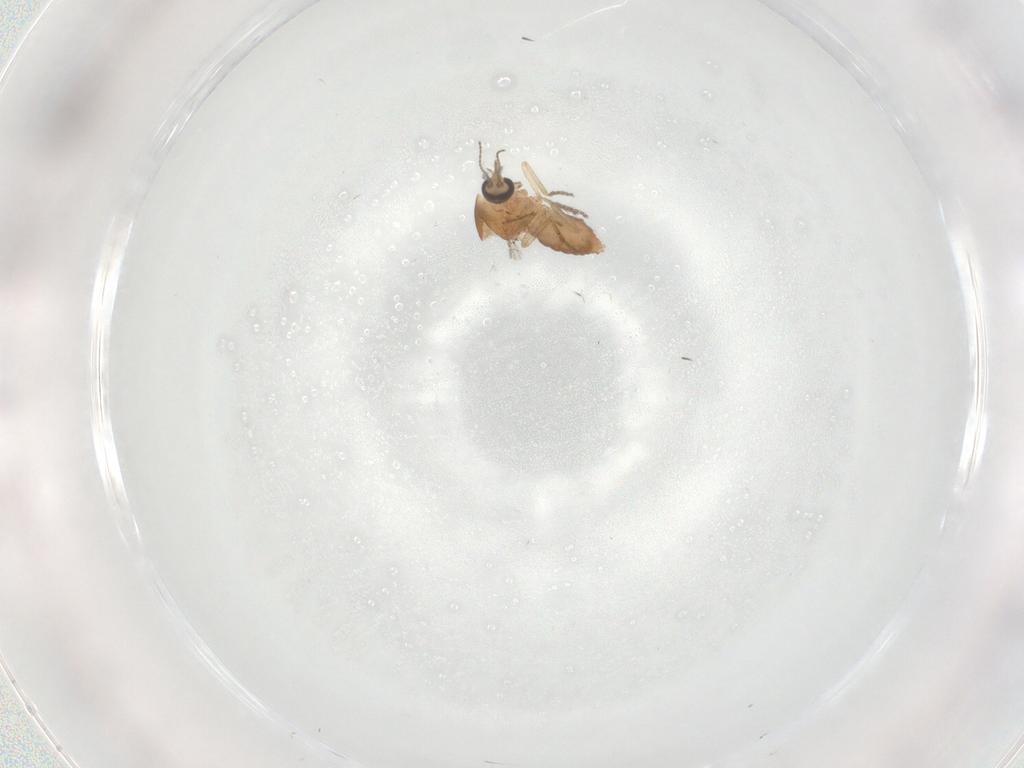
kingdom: Animalia
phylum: Arthropoda
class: Insecta
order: Diptera
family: Ceratopogonidae
